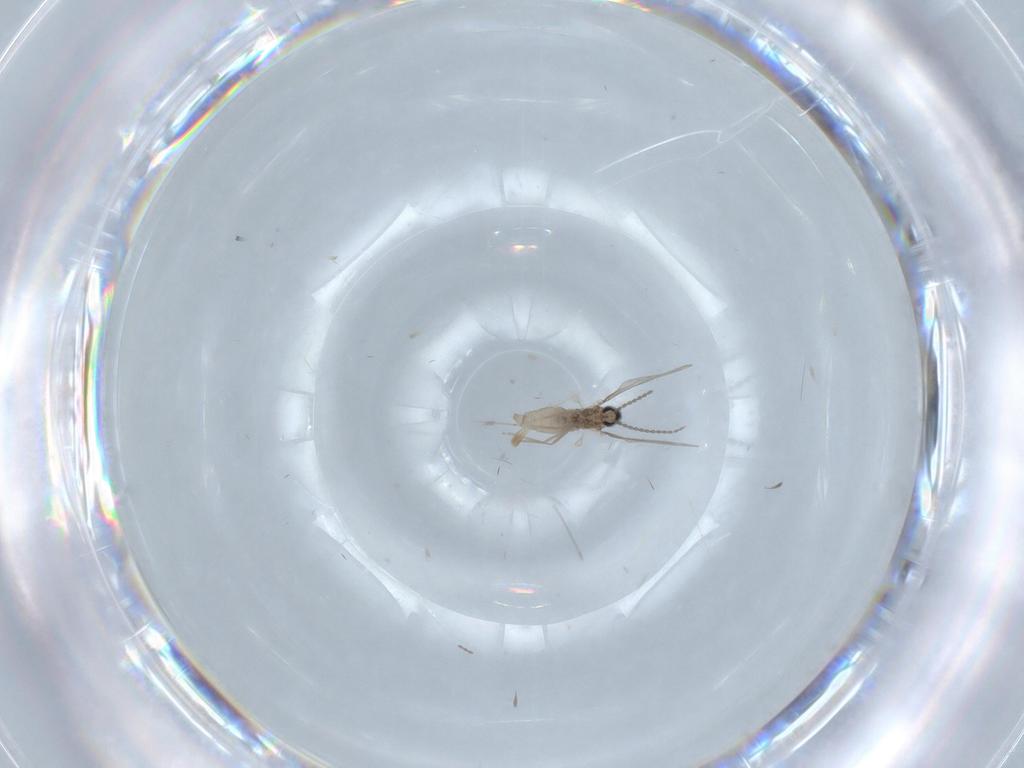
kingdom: Animalia
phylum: Arthropoda
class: Insecta
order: Diptera
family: Cecidomyiidae
